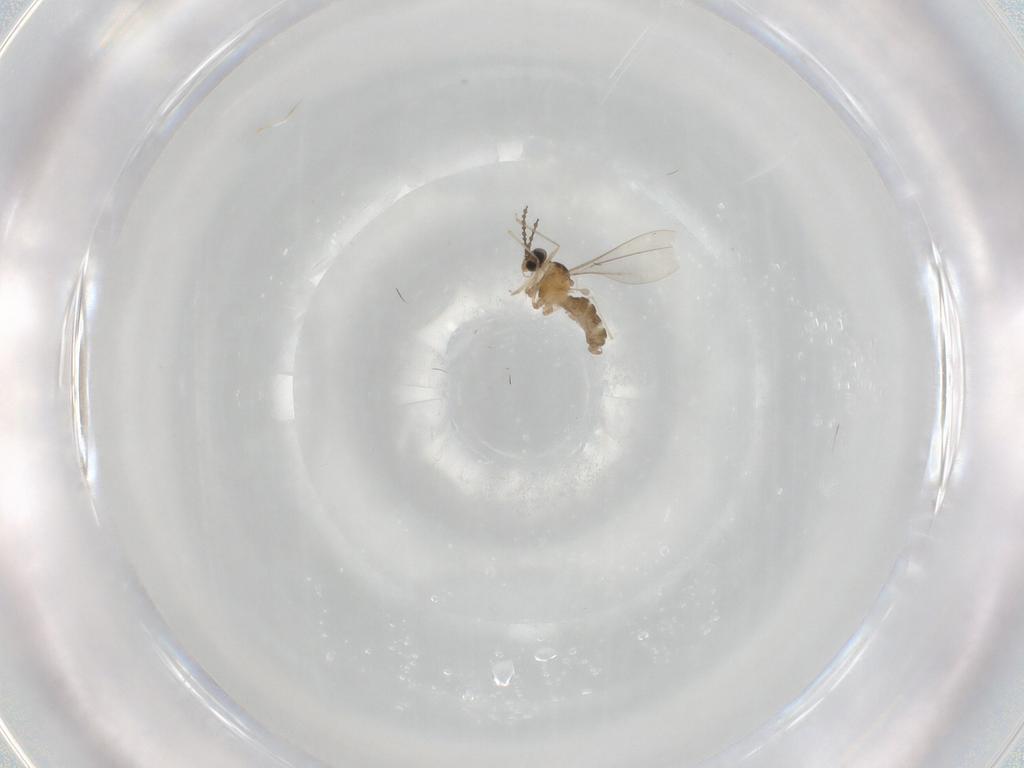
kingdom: Animalia
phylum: Arthropoda
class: Insecta
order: Diptera
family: Cecidomyiidae
